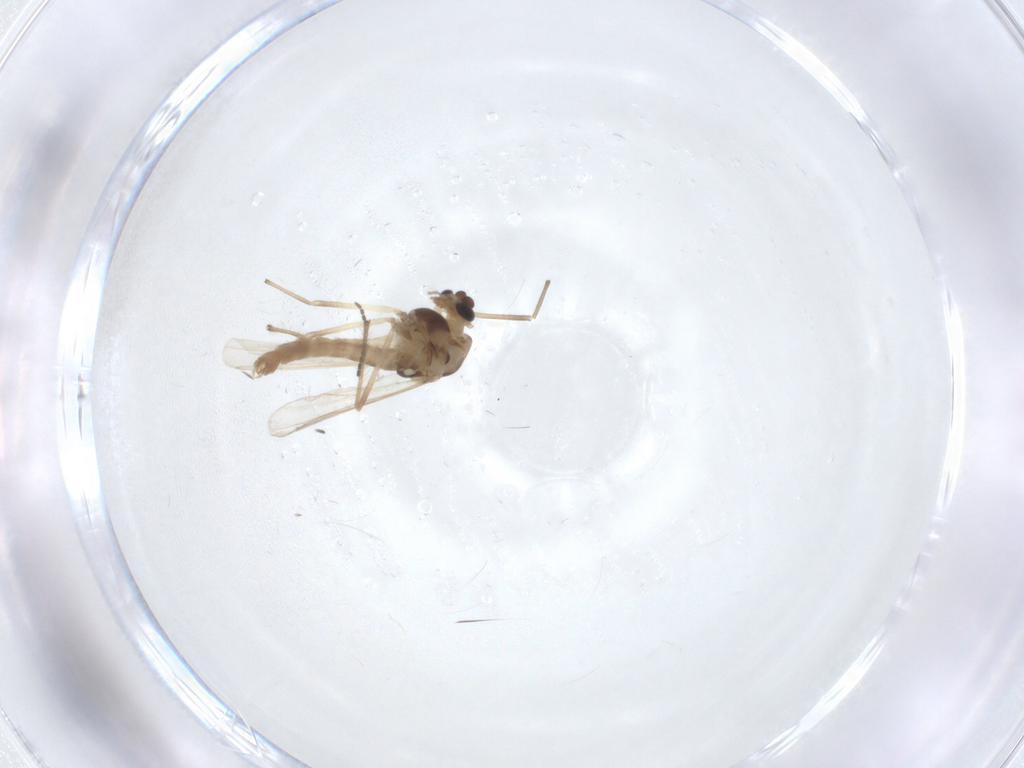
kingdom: Animalia
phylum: Arthropoda
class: Insecta
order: Diptera
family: Chironomidae
